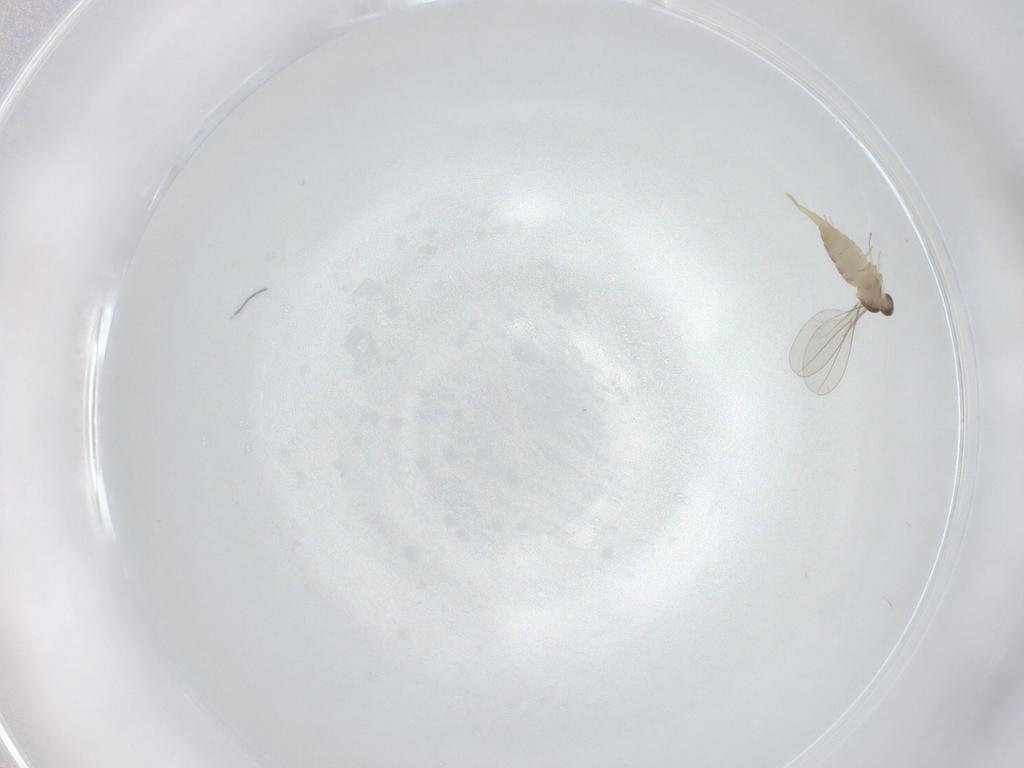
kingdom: Animalia
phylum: Arthropoda
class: Insecta
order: Diptera
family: Cecidomyiidae
